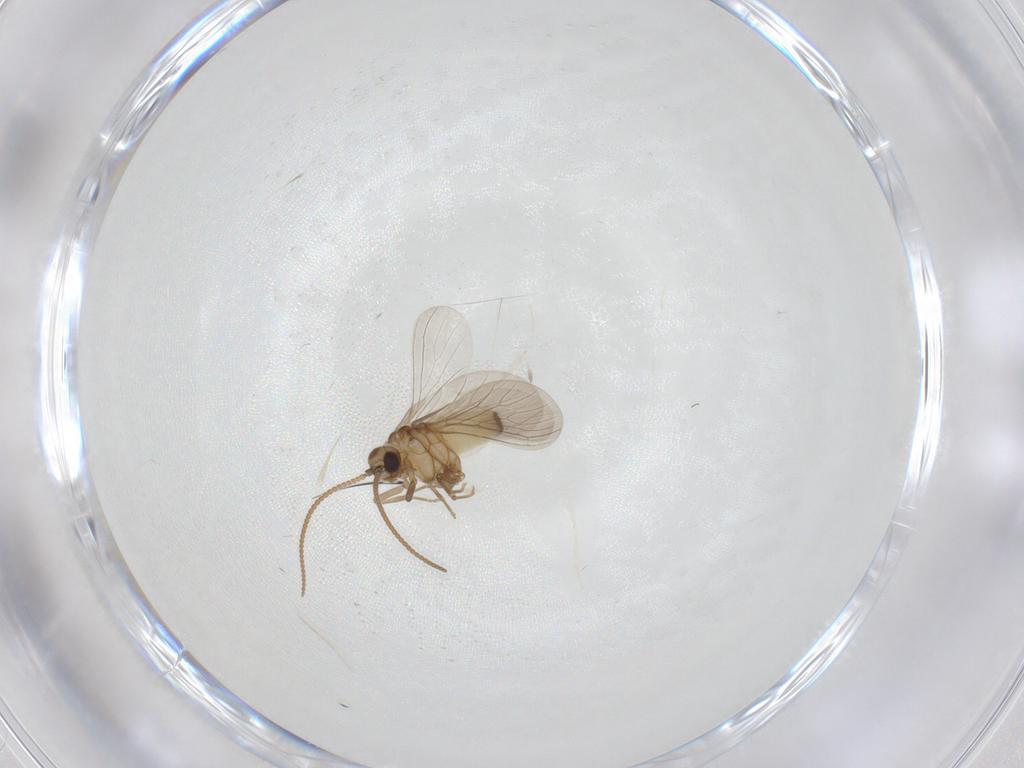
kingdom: Animalia
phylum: Arthropoda
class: Insecta
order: Neuroptera
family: Coniopterygidae
